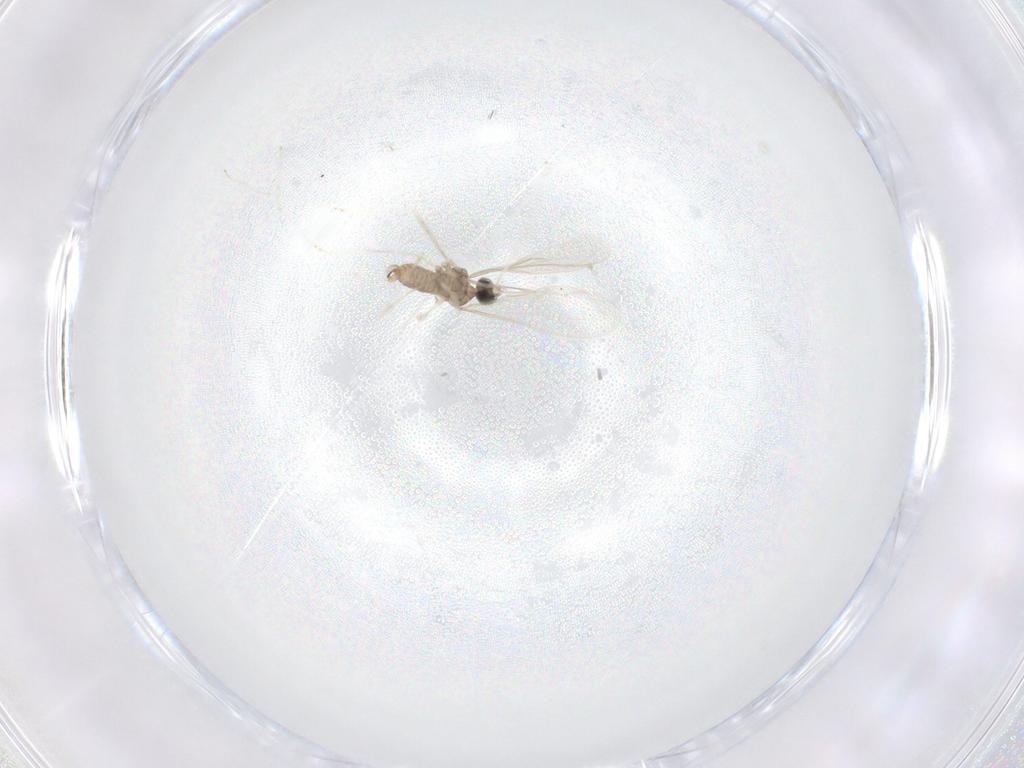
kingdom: Animalia
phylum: Arthropoda
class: Insecta
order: Diptera
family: Cecidomyiidae
